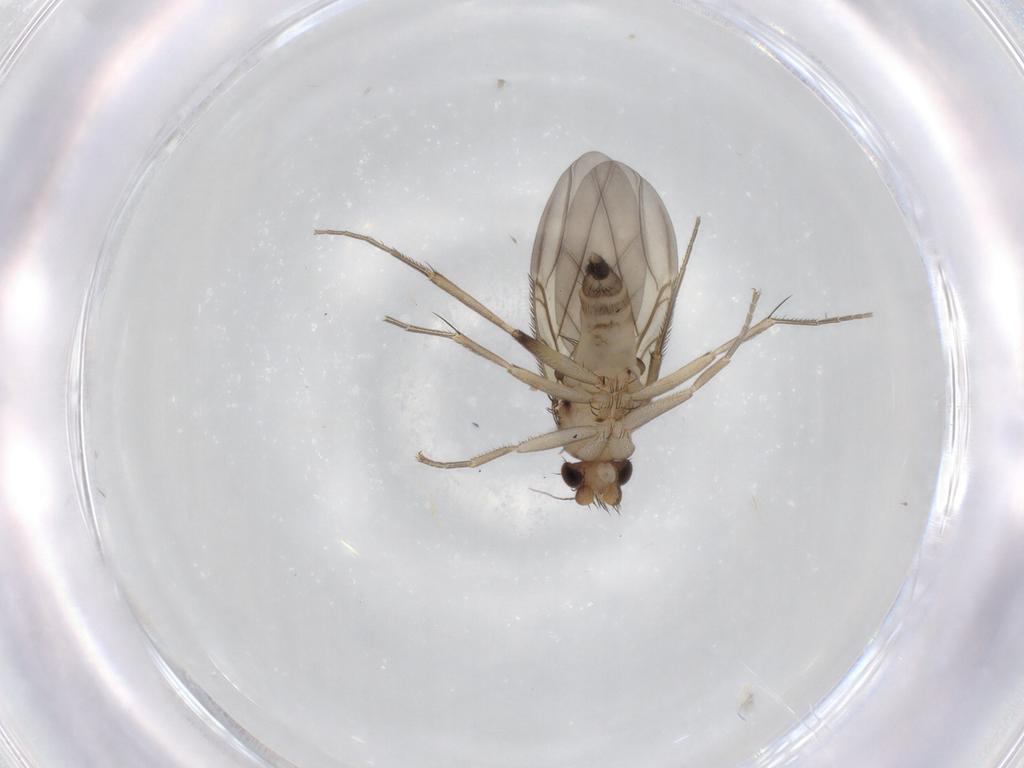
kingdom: Animalia
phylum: Arthropoda
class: Insecta
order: Diptera
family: Phoridae
